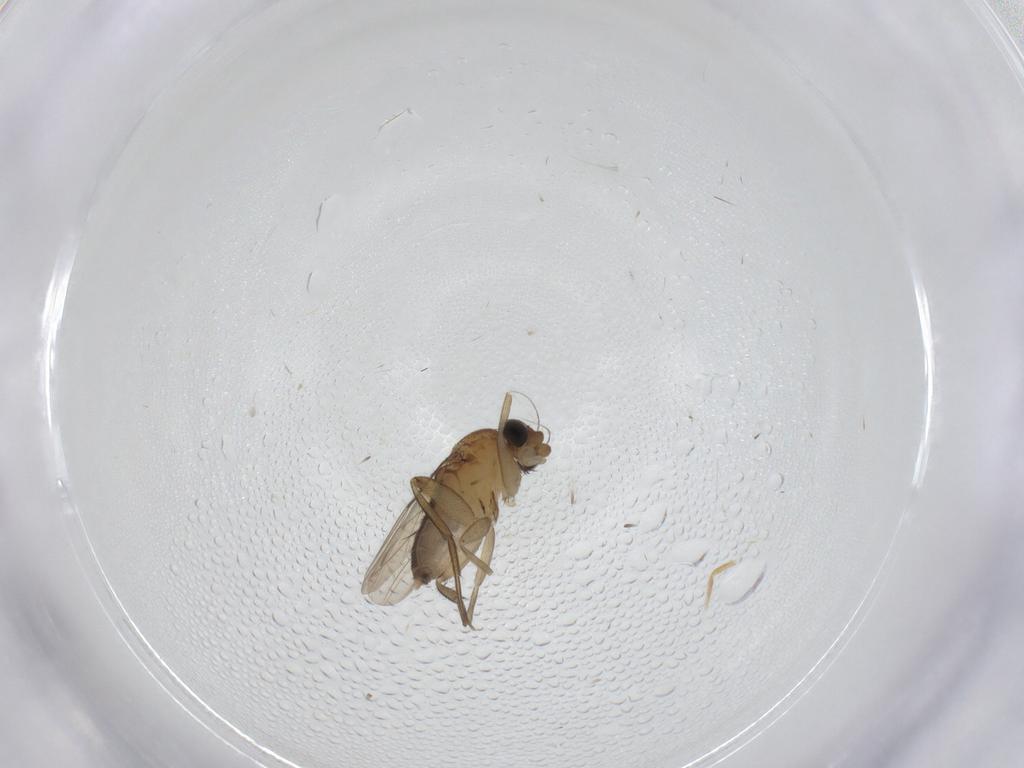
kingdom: Animalia
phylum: Arthropoda
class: Insecta
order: Diptera
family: Phoridae
